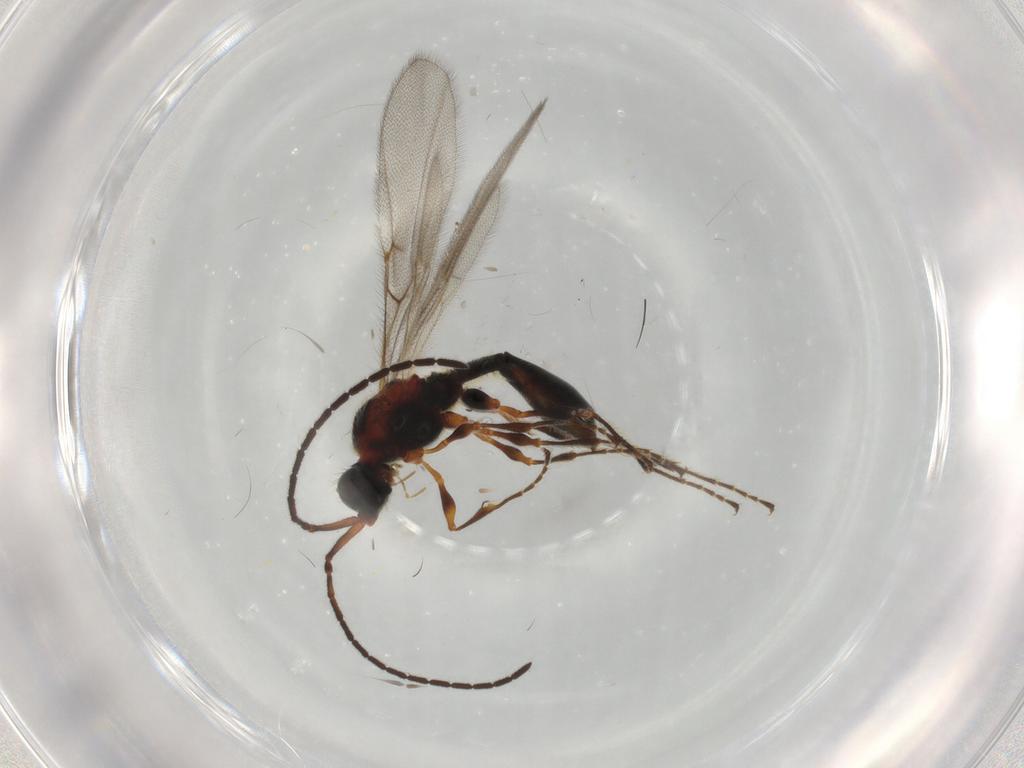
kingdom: Animalia
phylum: Arthropoda
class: Insecta
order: Hymenoptera
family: Diapriidae
